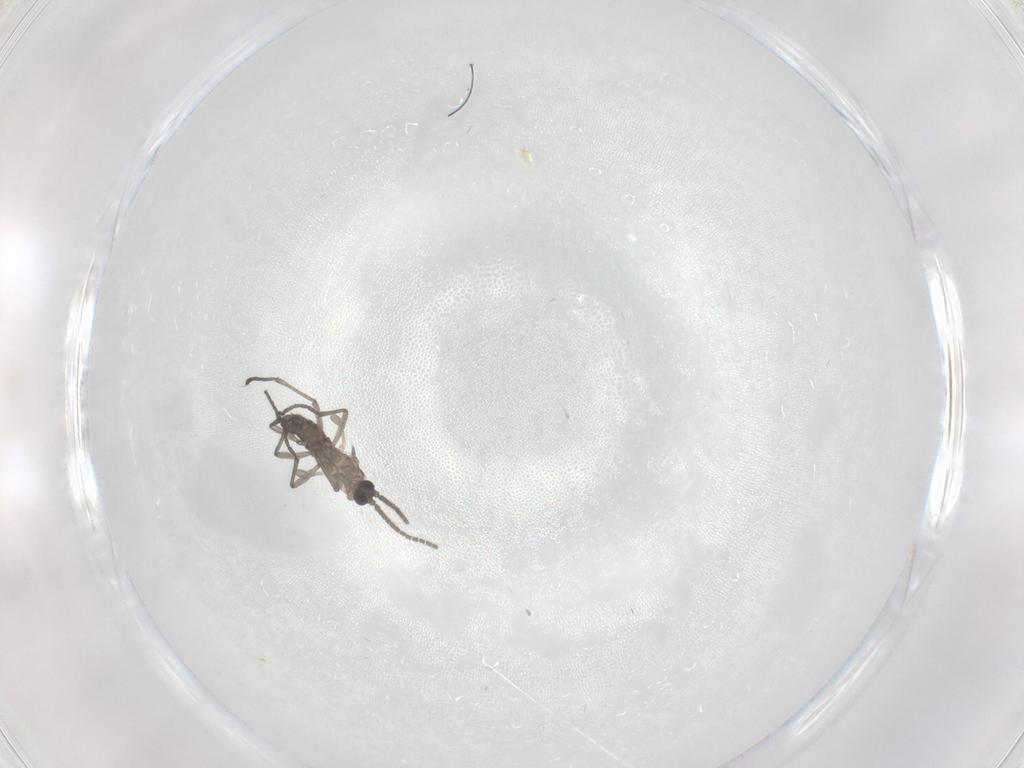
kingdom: Animalia
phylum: Arthropoda
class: Insecta
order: Diptera
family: Sciaridae
